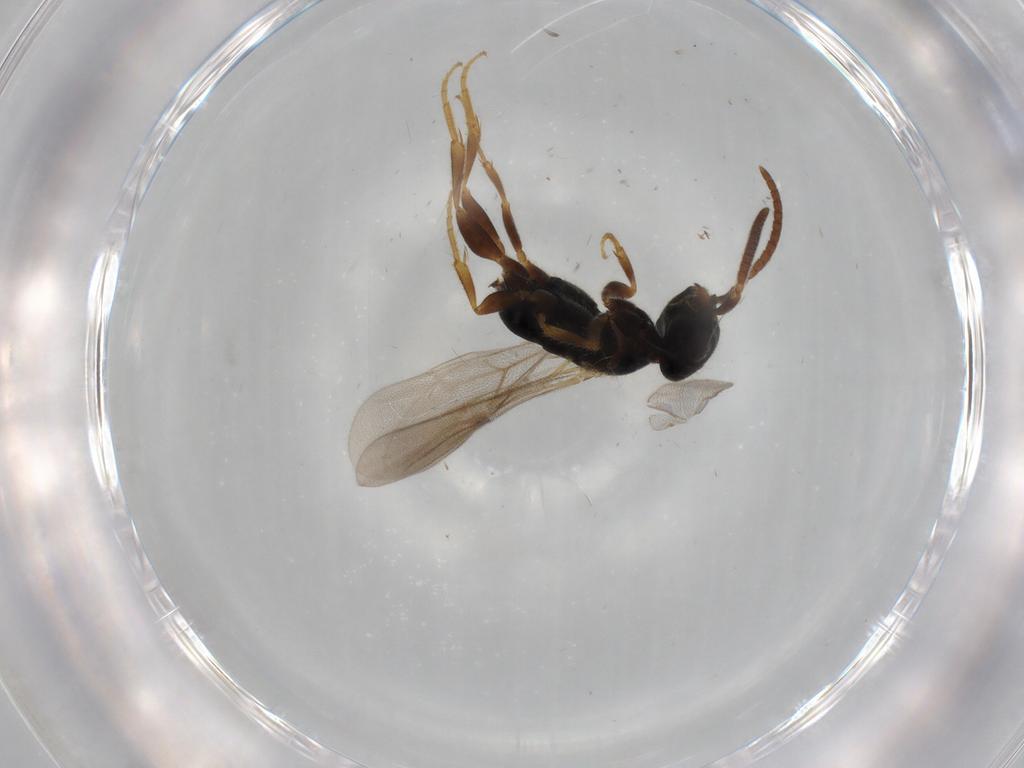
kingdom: Animalia
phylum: Arthropoda
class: Insecta
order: Hymenoptera
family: Bethylidae
